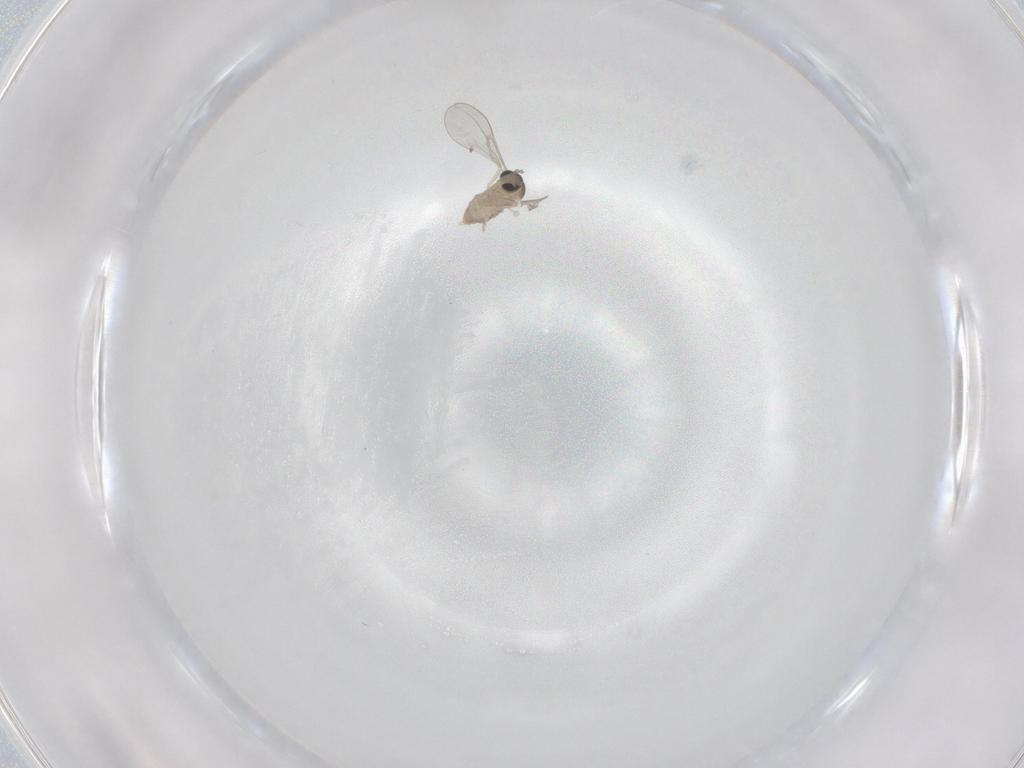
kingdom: Animalia
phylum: Arthropoda
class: Insecta
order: Diptera
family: Cecidomyiidae
